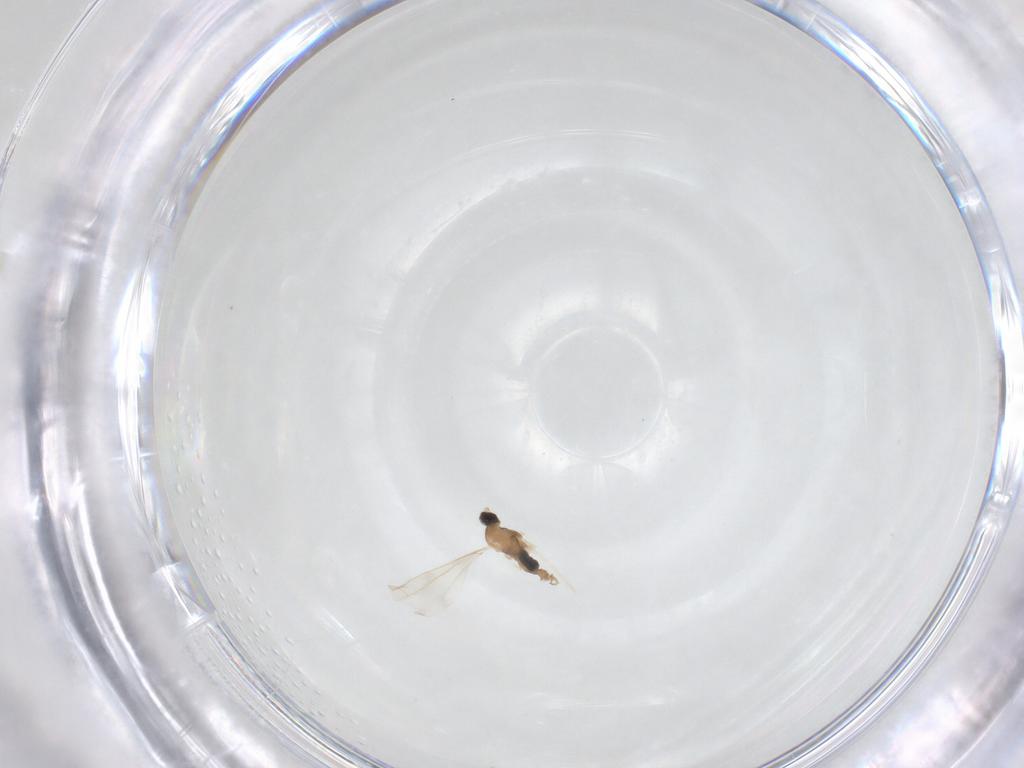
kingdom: Animalia
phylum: Arthropoda
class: Insecta
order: Diptera
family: Cecidomyiidae
